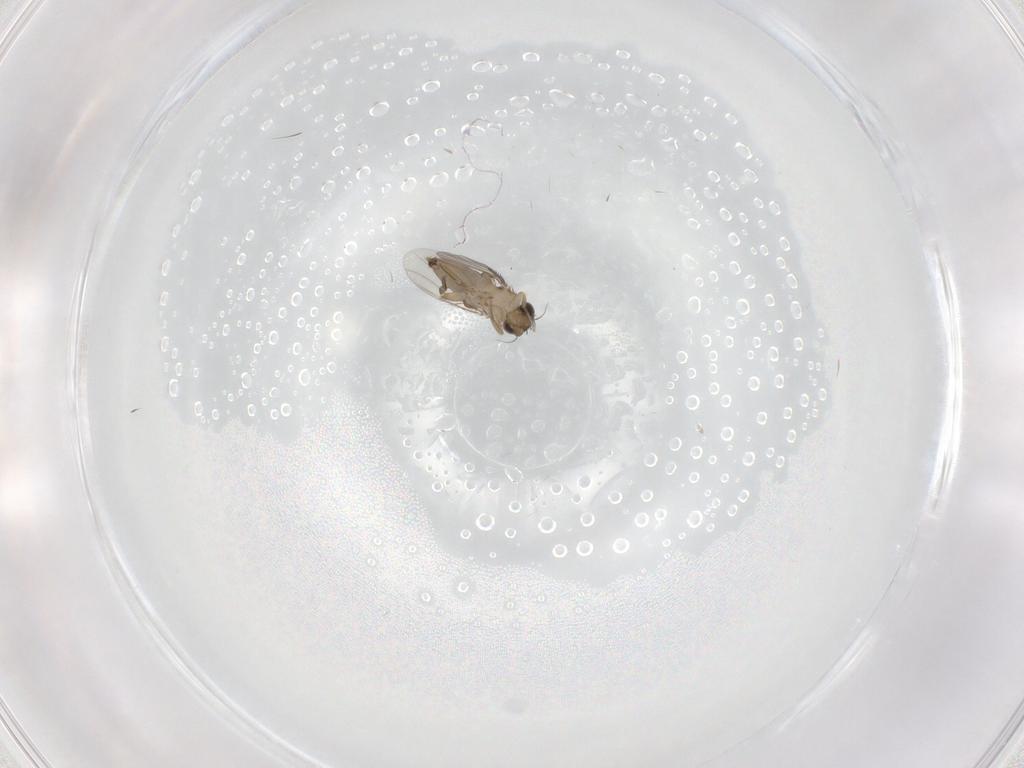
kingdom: Animalia
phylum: Arthropoda
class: Insecta
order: Diptera
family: Phoridae
